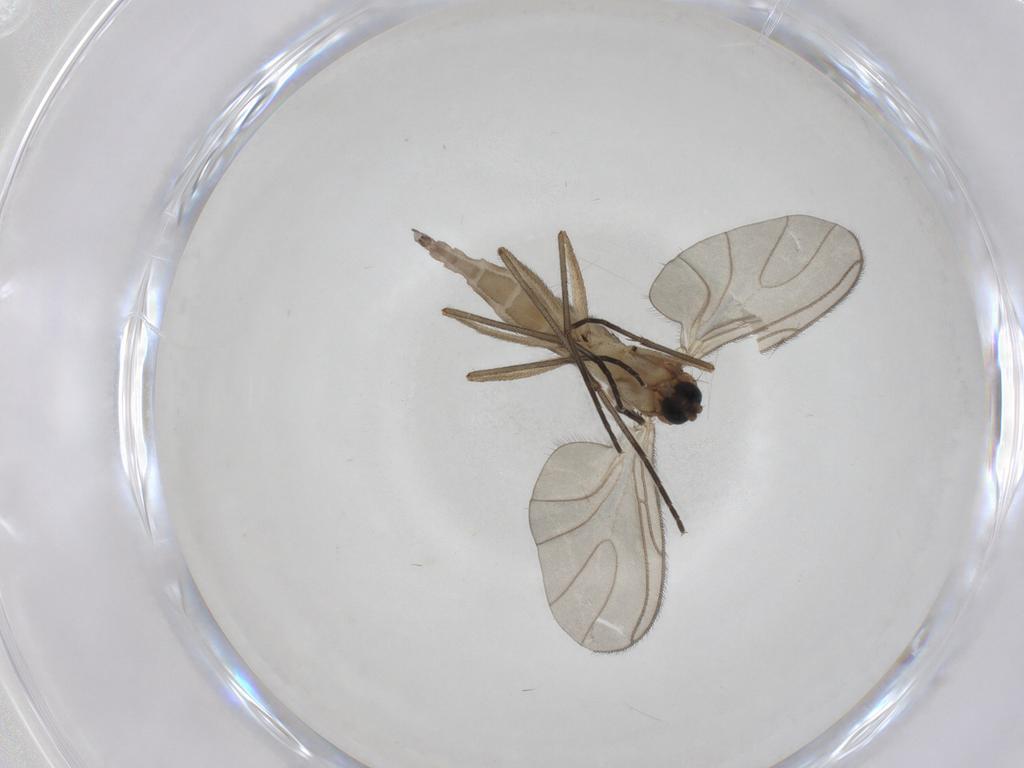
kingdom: Animalia
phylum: Arthropoda
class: Insecta
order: Diptera
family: Sciaridae
